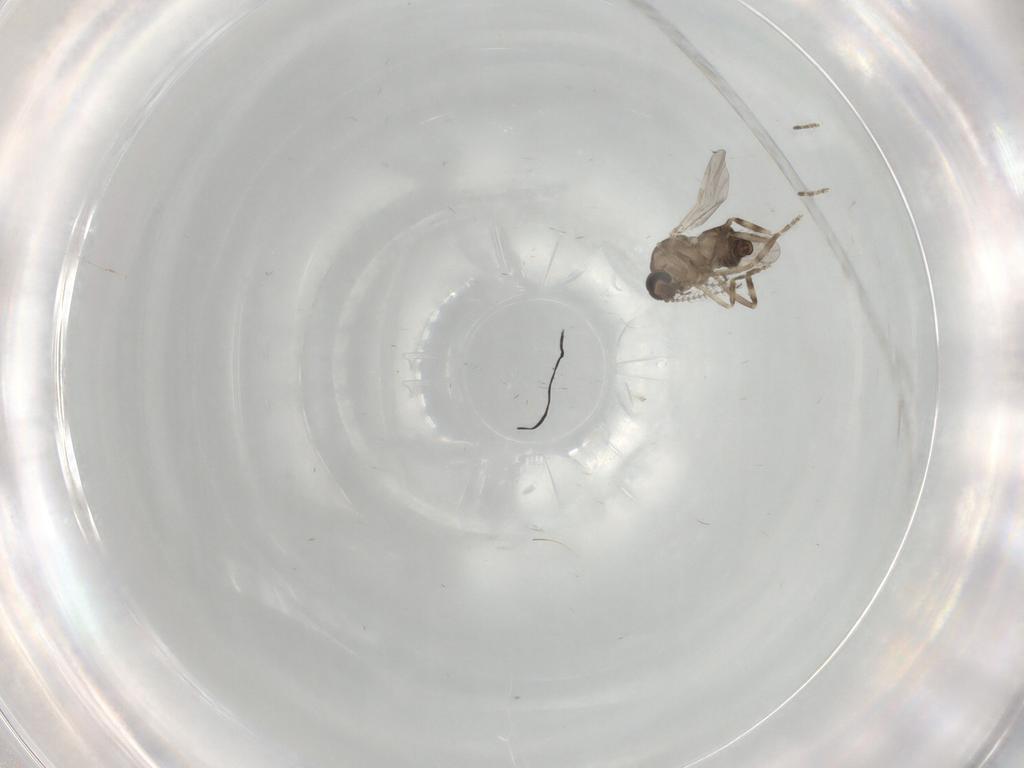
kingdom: Animalia
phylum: Arthropoda
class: Insecta
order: Diptera
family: Ceratopogonidae
